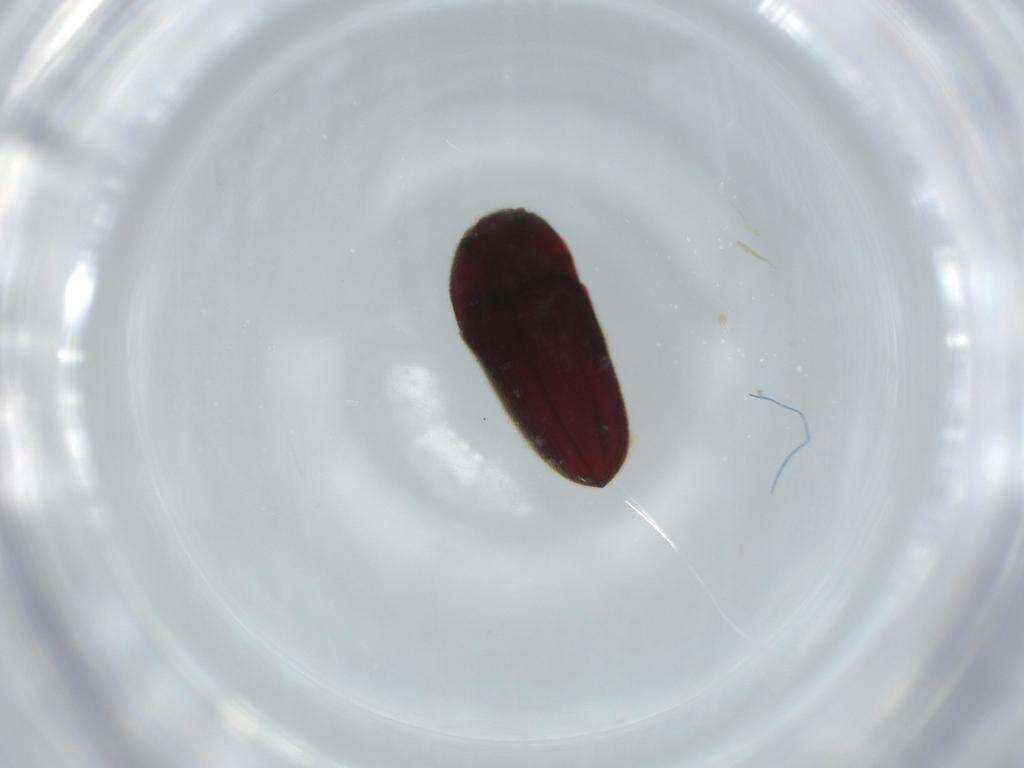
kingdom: Animalia
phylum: Arthropoda
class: Insecta
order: Coleoptera
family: Throscidae
